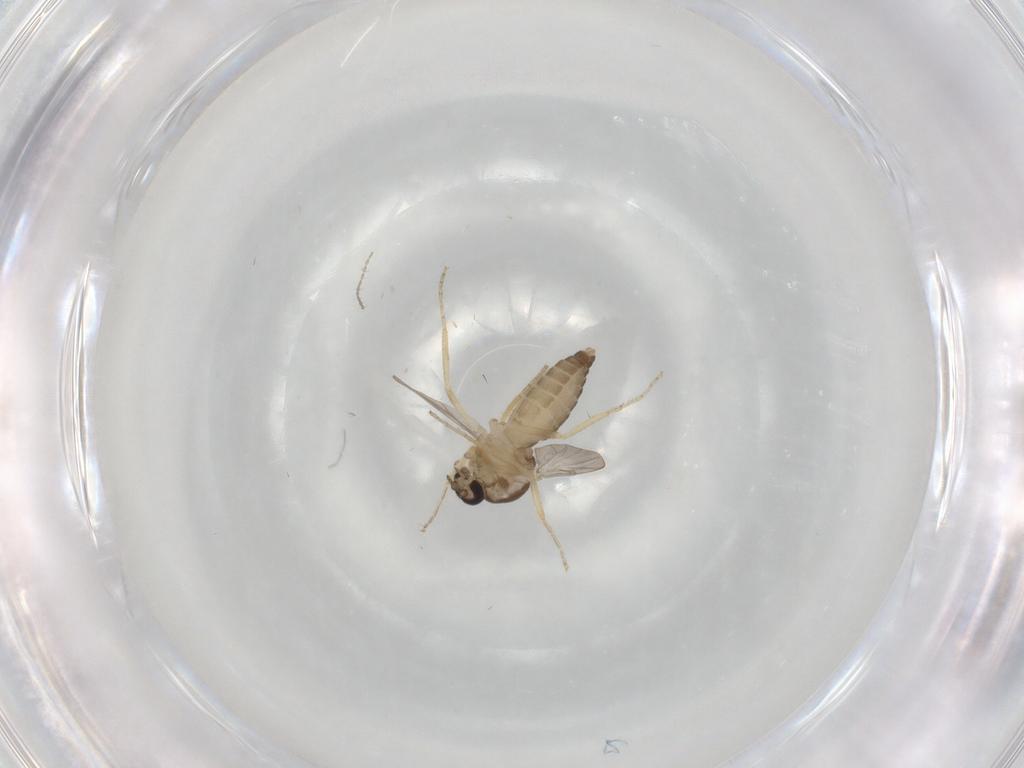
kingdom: Animalia
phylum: Arthropoda
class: Insecta
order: Diptera
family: Ceratopogonidae
